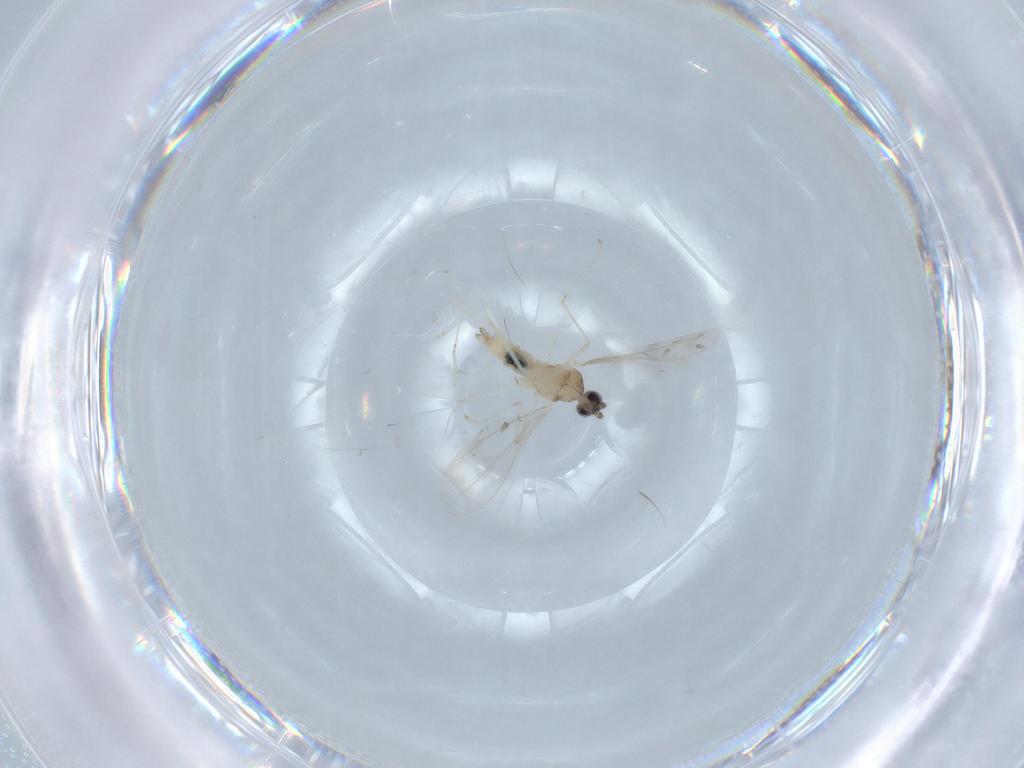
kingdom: Animalia
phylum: Arthropoda
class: Insecta
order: Diptera
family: Cecidomyiidae
